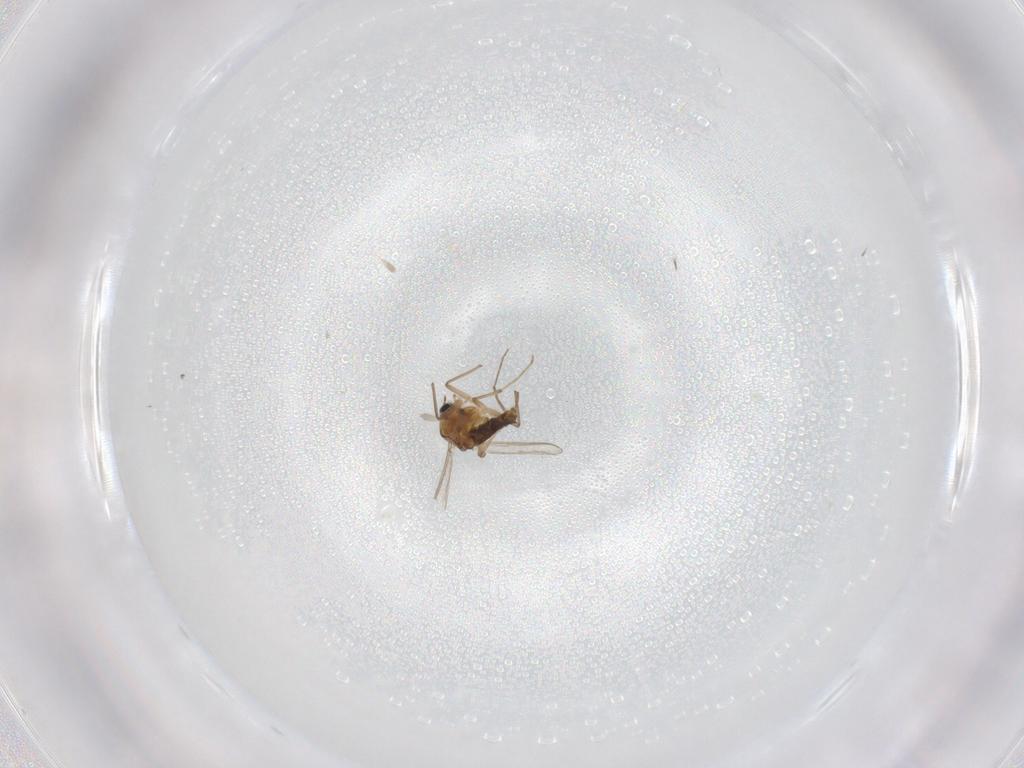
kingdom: Animalia
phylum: Arthropoda
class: Insecta
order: Diptera
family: Chironomidae
